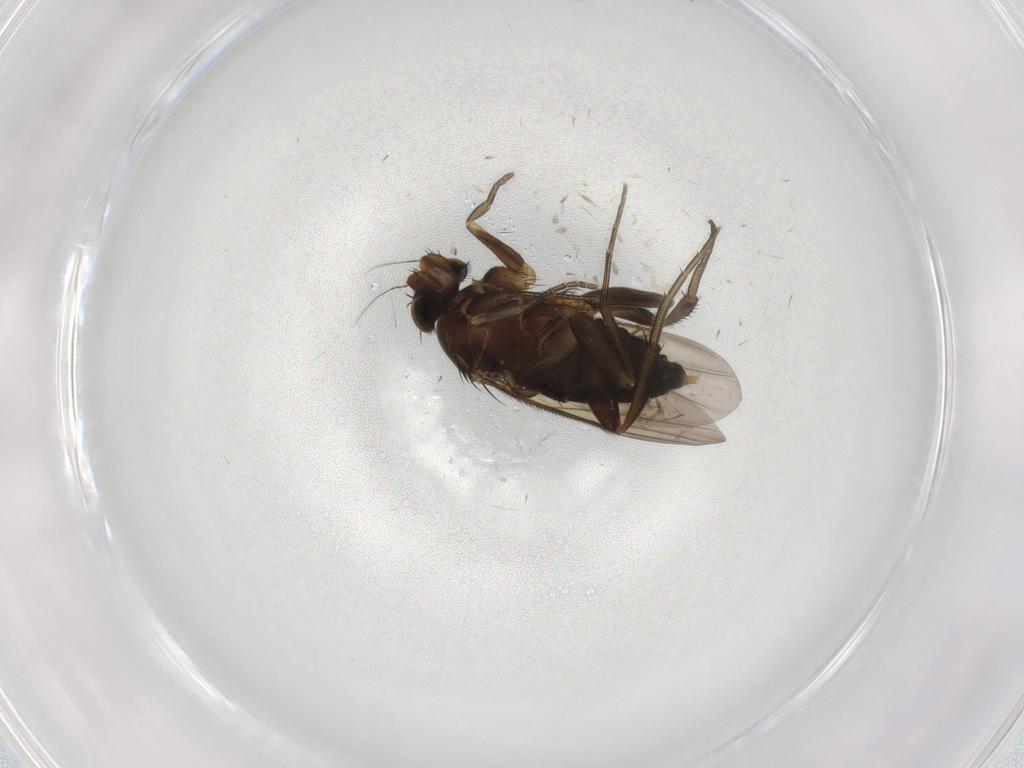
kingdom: Animalia
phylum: Arthropoda
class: Insecta
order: Diptera
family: Phoridae
